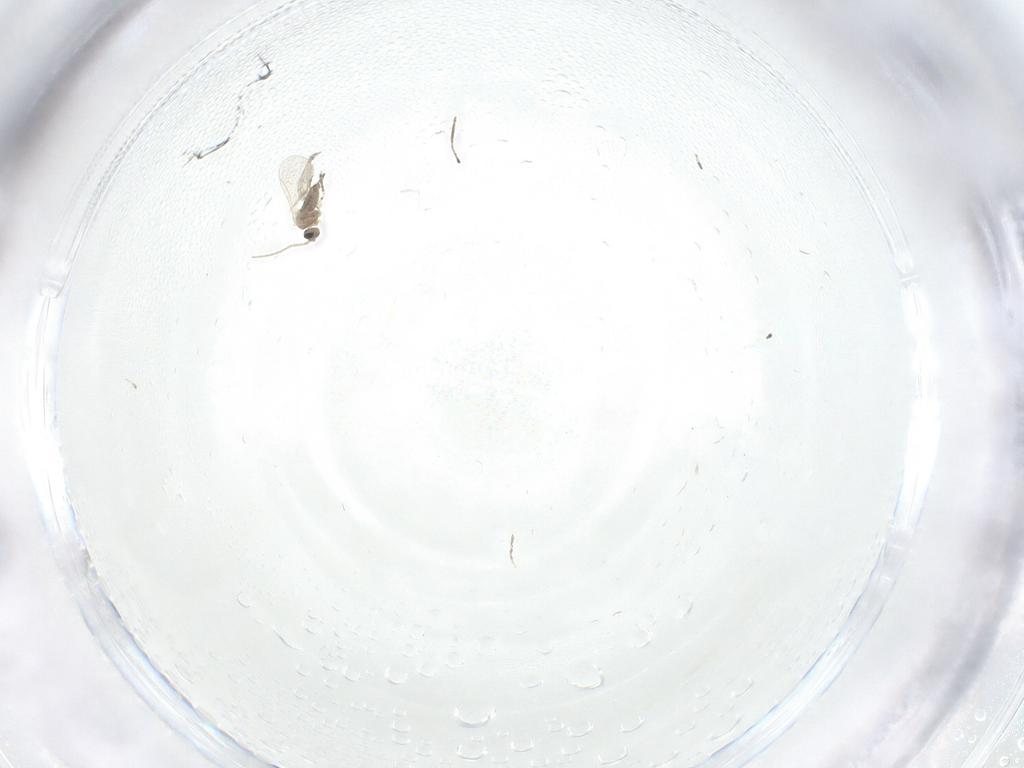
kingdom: Animalia
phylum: Arthropoda
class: Insecta
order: Diptera
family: Cecidomyiidae
